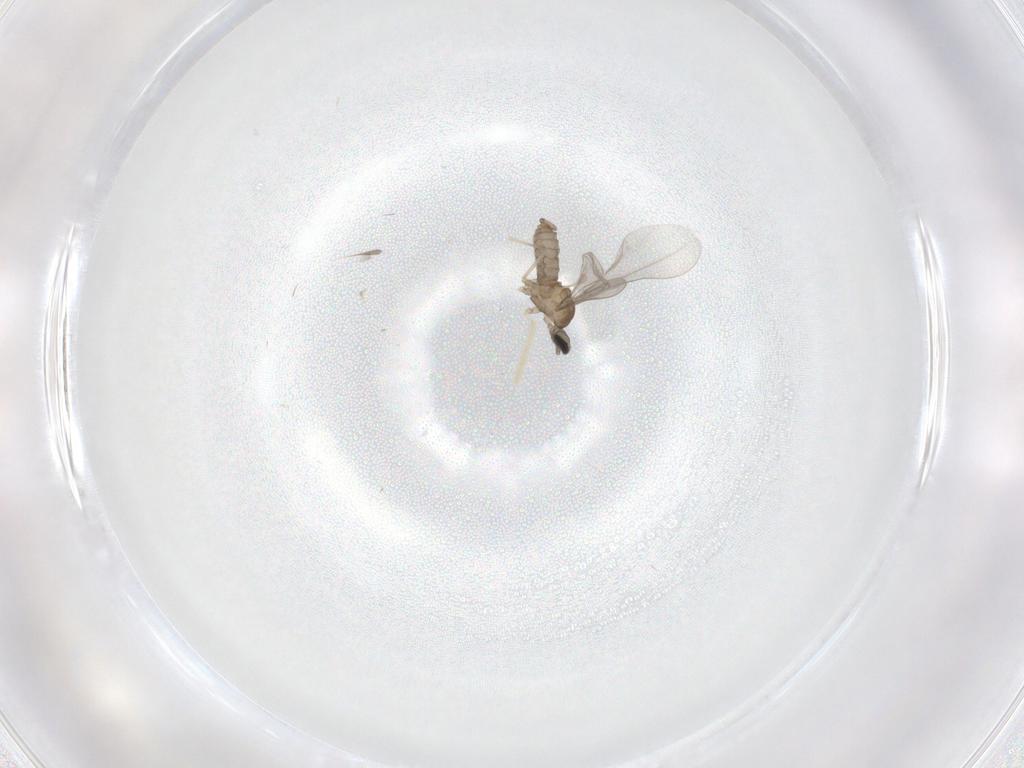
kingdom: Animalia
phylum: Arthropoda
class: Insecta
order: Diptera
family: Cecidomyiidae
